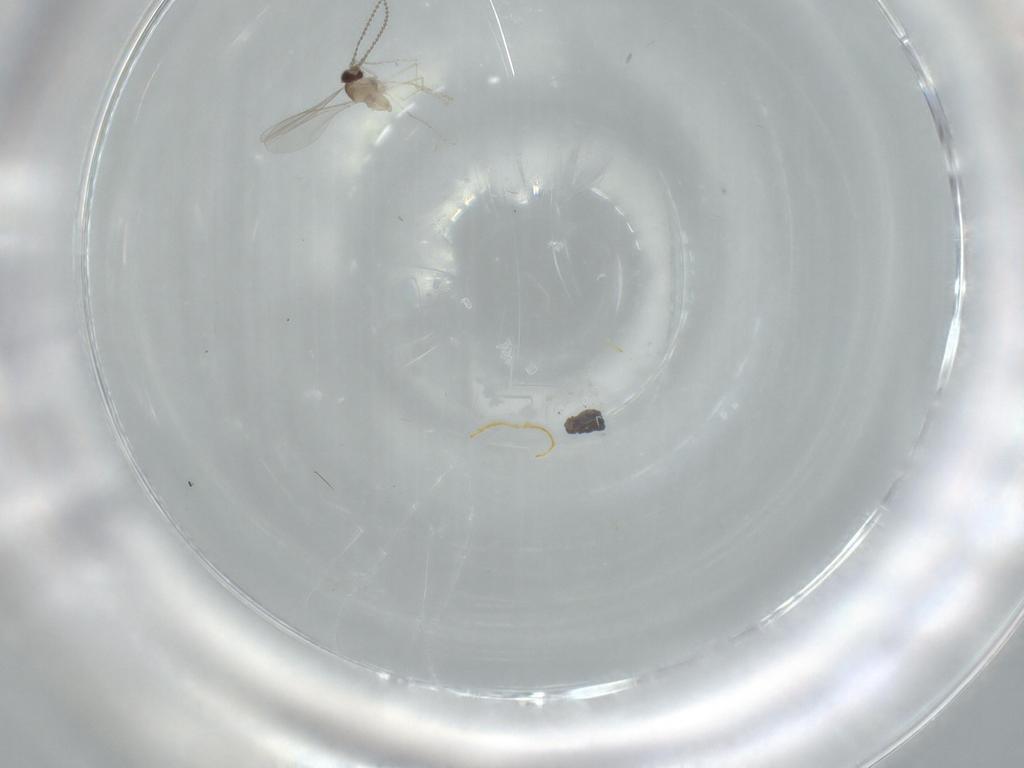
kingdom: Animalia
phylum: Arthropoda
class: Insecta
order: Diptera
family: Cecidomyiidae
